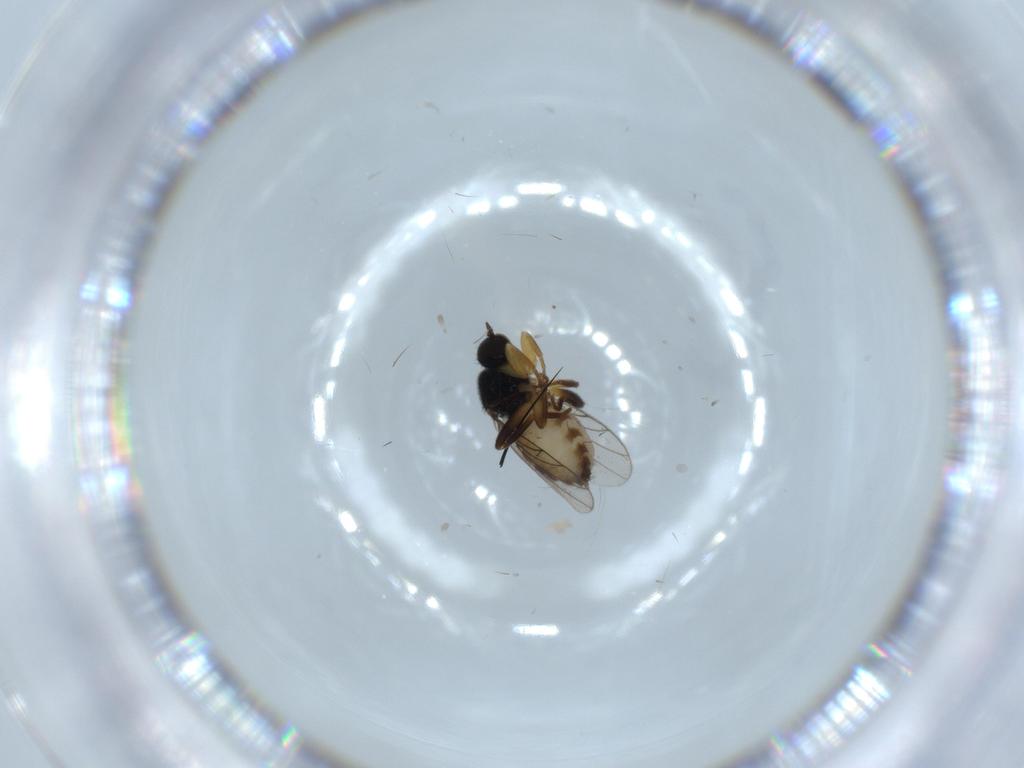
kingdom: Animalia
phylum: Arthropoda
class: Insecta
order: Diptera
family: Hybotidae
